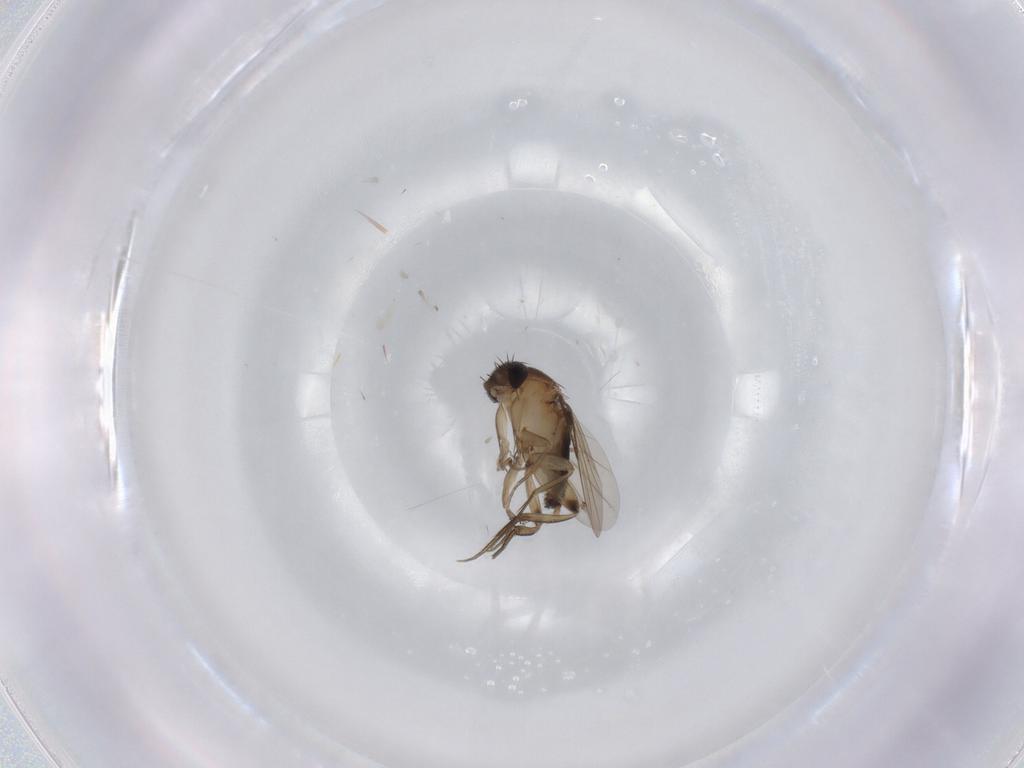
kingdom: Animalia
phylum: Arthropoda
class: Insecta
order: Diptera
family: Phoridae
